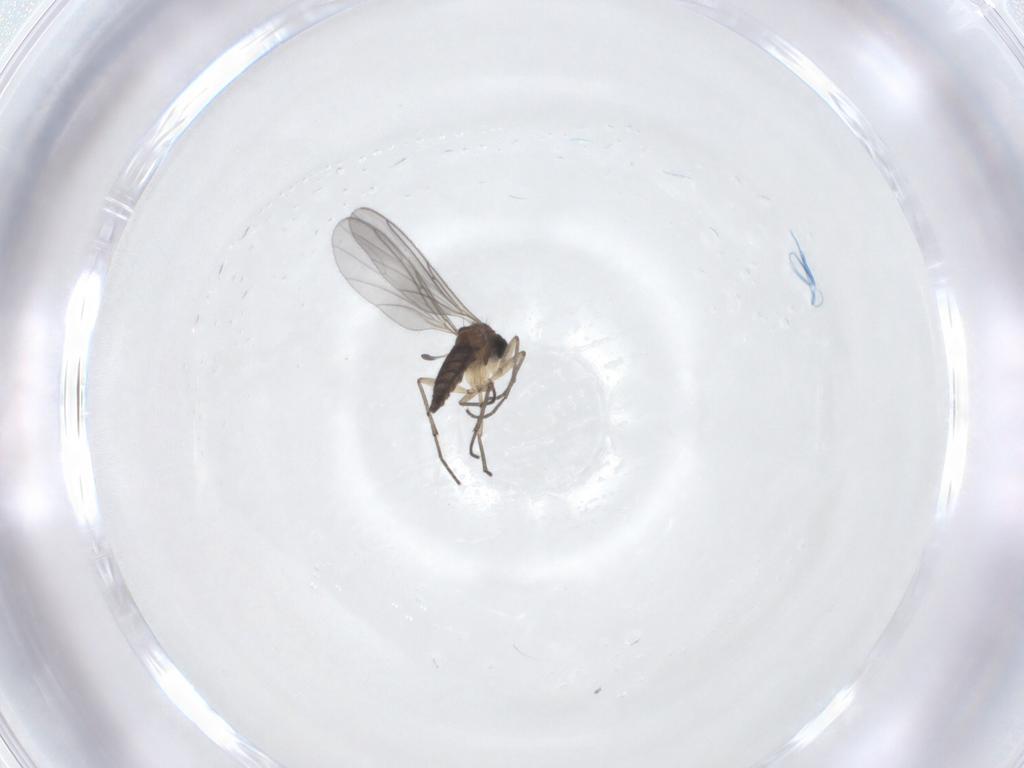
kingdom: Animalia
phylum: Arthropoda
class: Insecta
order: Diptera
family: Sciaridae
